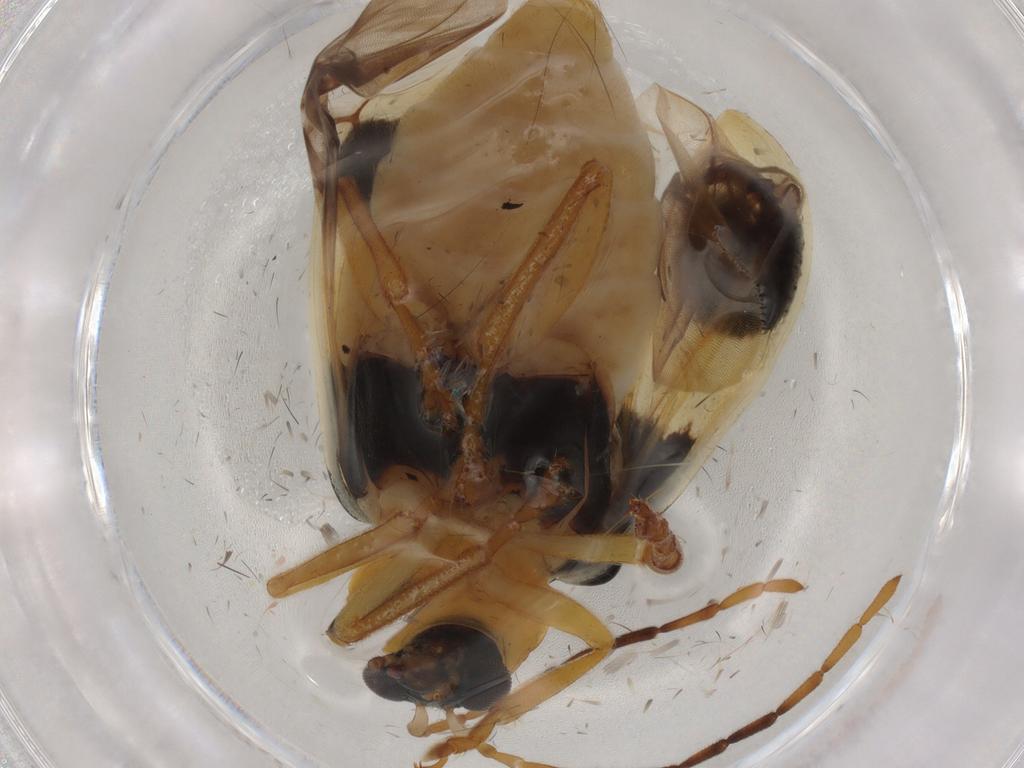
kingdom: Animalia
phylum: Arthropoda
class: Insecta
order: Coleoptera
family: Chrysomelidae
